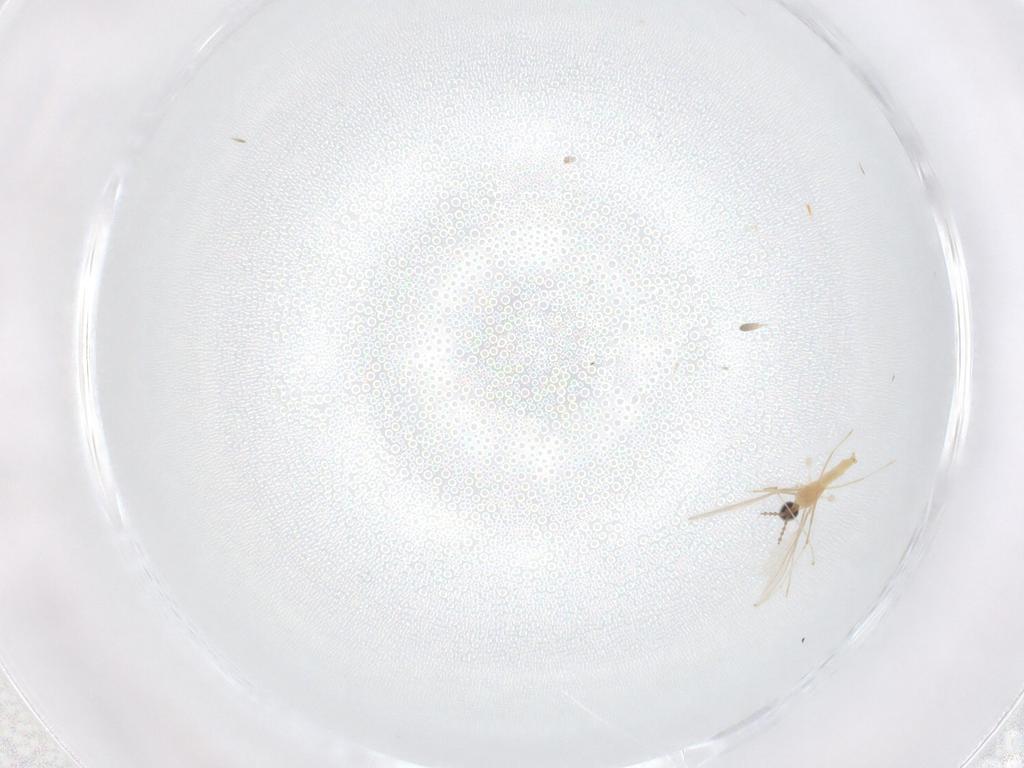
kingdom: Animalia
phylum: Arthropoda
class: Insecta
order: Diptera
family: Cecidomyiidae
